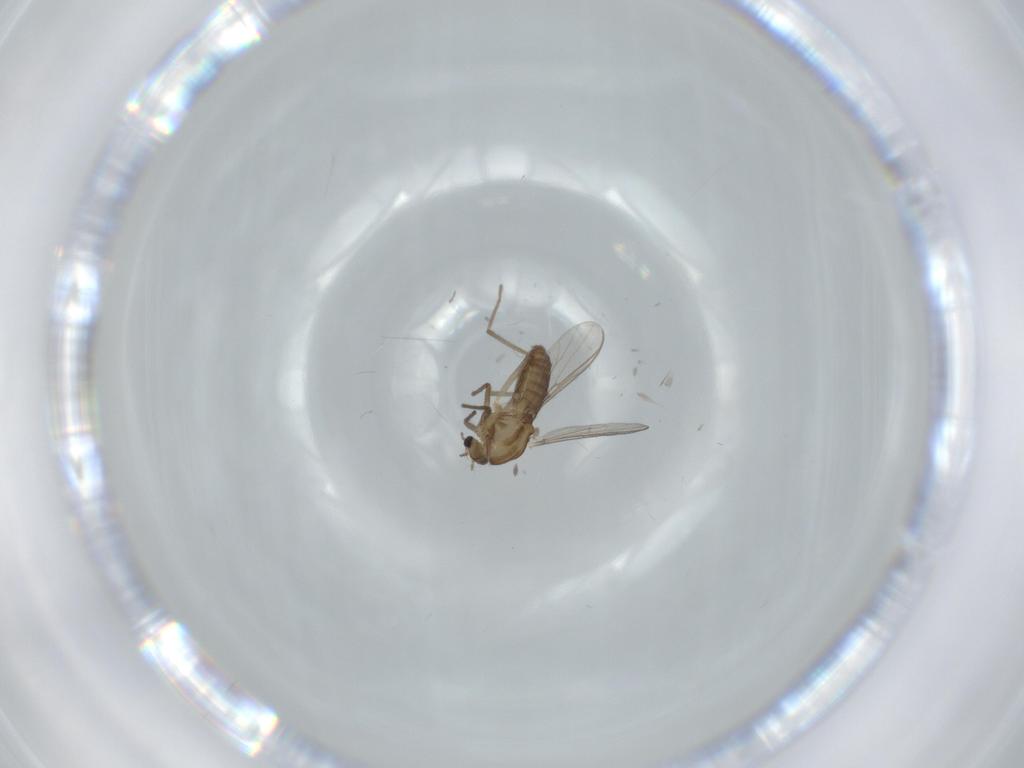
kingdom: Animalia
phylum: Arthropoda
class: Insecta
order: Diptera
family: Chironomidae
